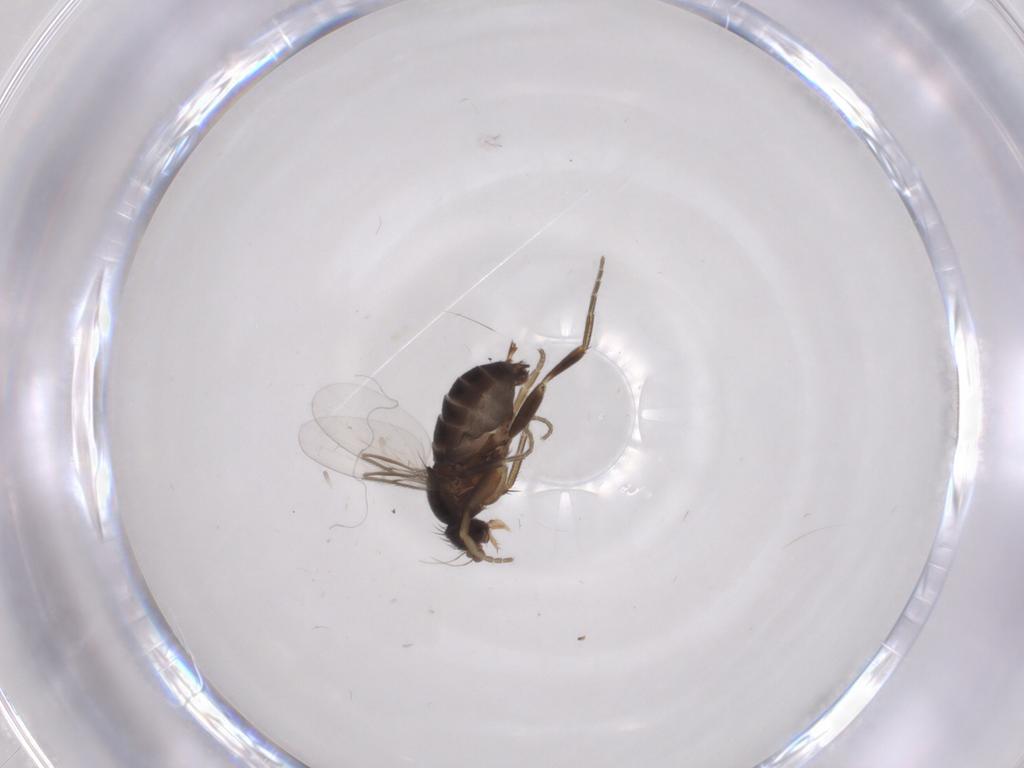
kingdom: Animalia
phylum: Arthropoda
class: Insecta
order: Diptera
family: Phoridae
